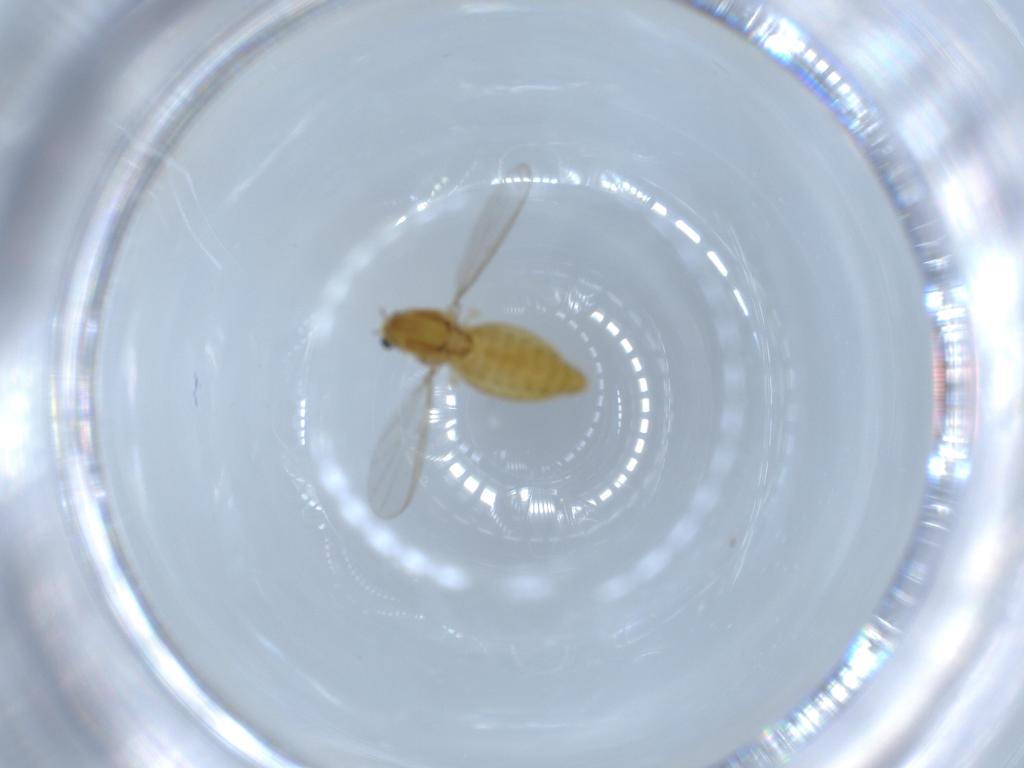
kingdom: Animalia
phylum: Arthropoda
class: Insecta
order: Diptera
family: Chironomidae
